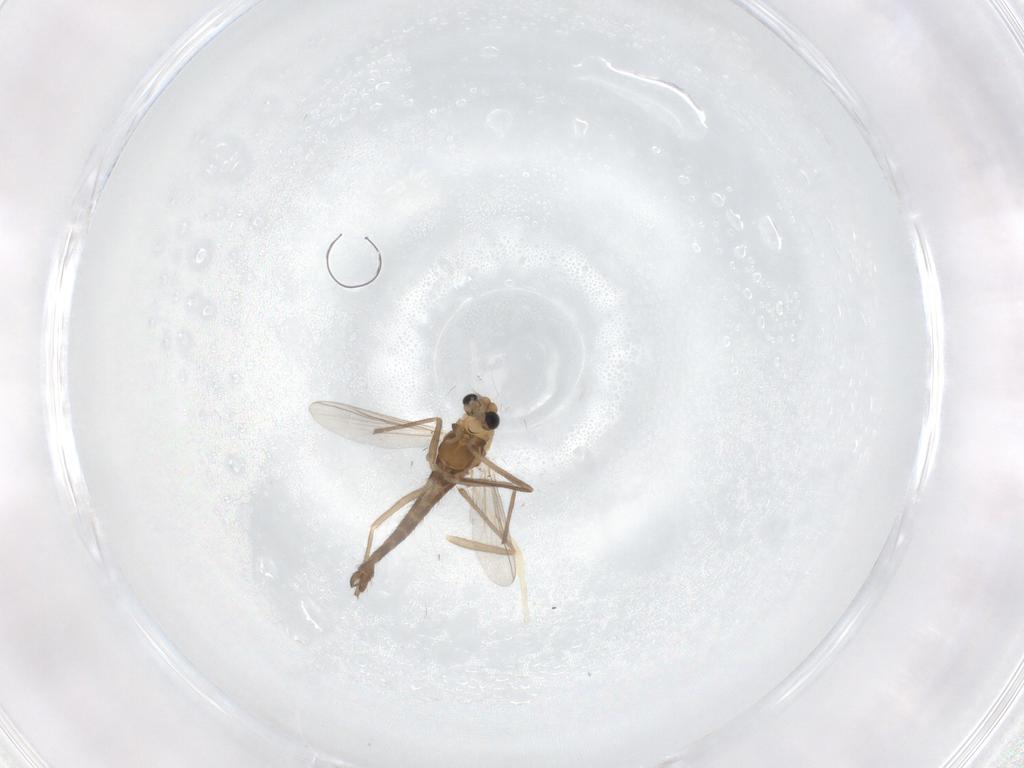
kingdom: Animalia
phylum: Arthropoda
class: Insecta
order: Diptera
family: Chironomidae
